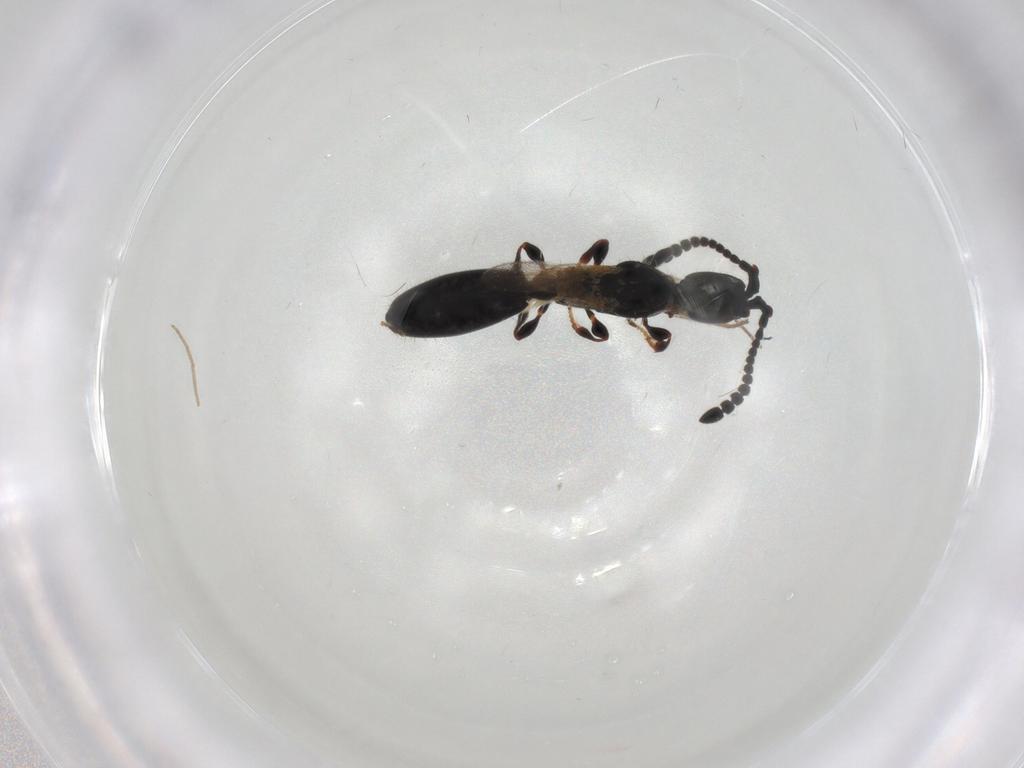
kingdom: Animalia
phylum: Arthropoda
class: Insecta
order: Hymenoptera
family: Diapriidae
